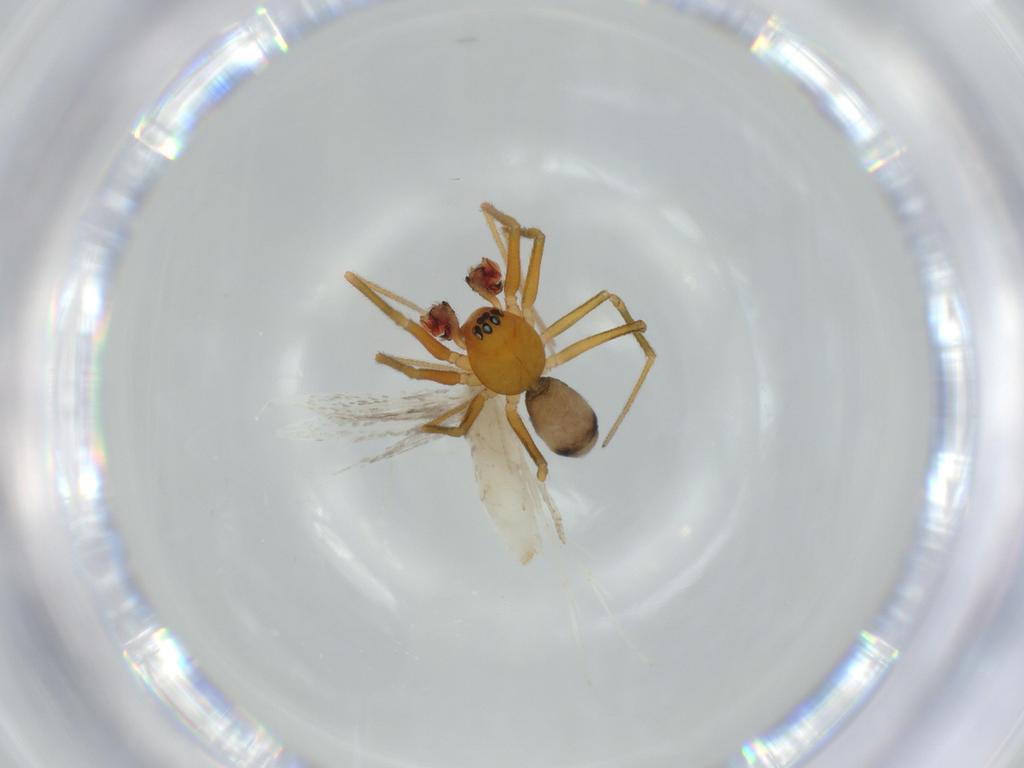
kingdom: Animalia
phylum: Arthropoda
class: Arachnida
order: Araneae
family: Linyphiidae
